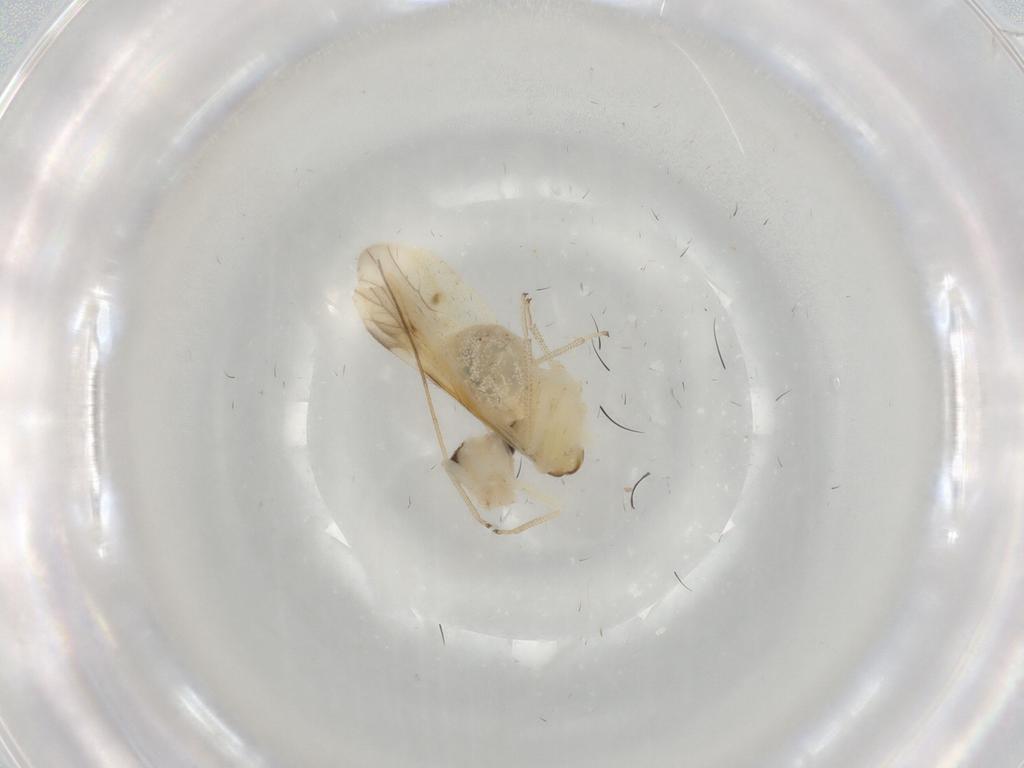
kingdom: Animalia
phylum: Arthropoda
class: Insecta
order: Psocodea
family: Caeciliusidae
